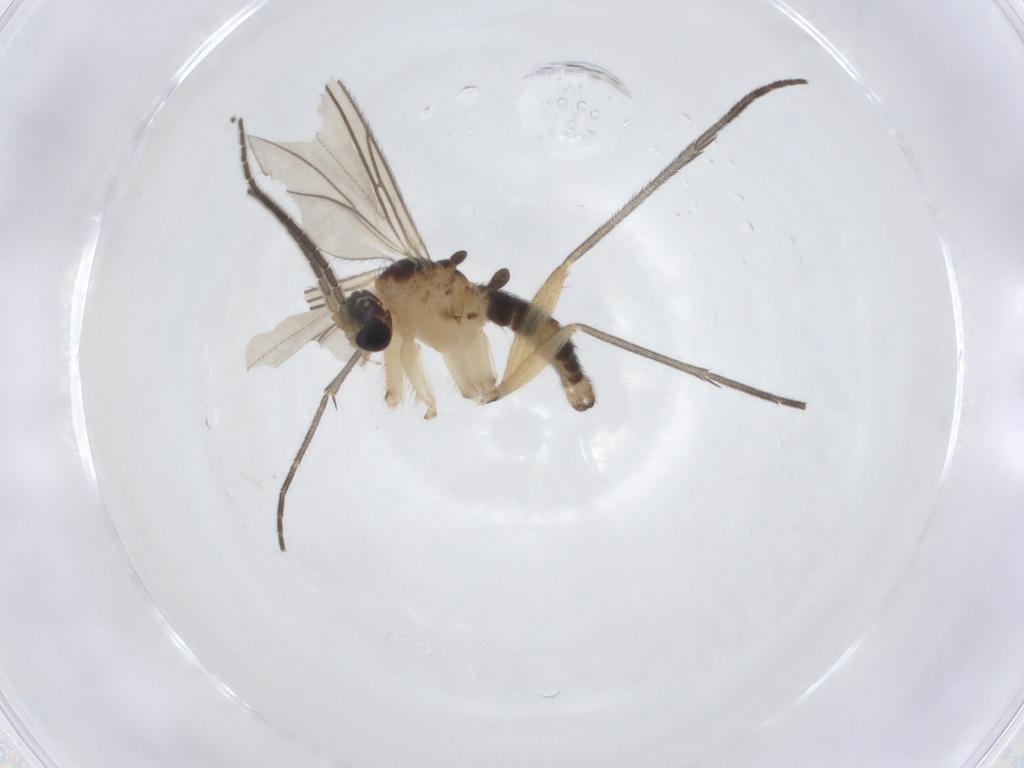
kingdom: Animalia
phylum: Arthropoda
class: Insecta
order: Diptera
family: Sciaridae
